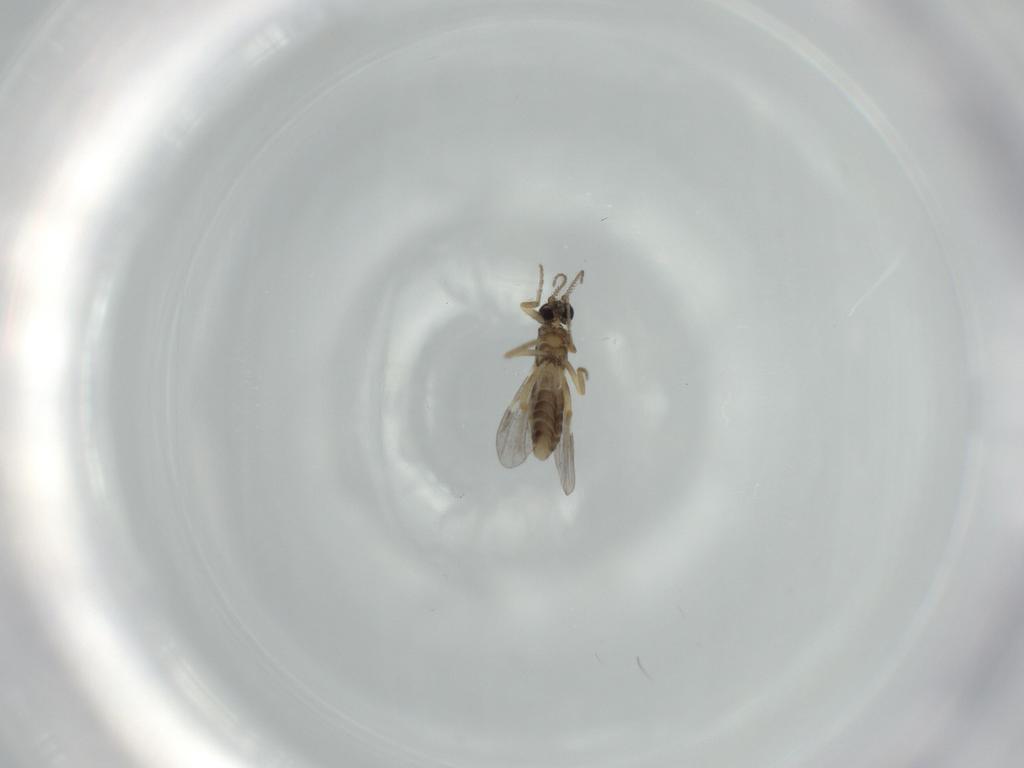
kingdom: Animalia
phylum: Arthropoda
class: Insecta
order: Diptera
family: Ceratopogonidae
